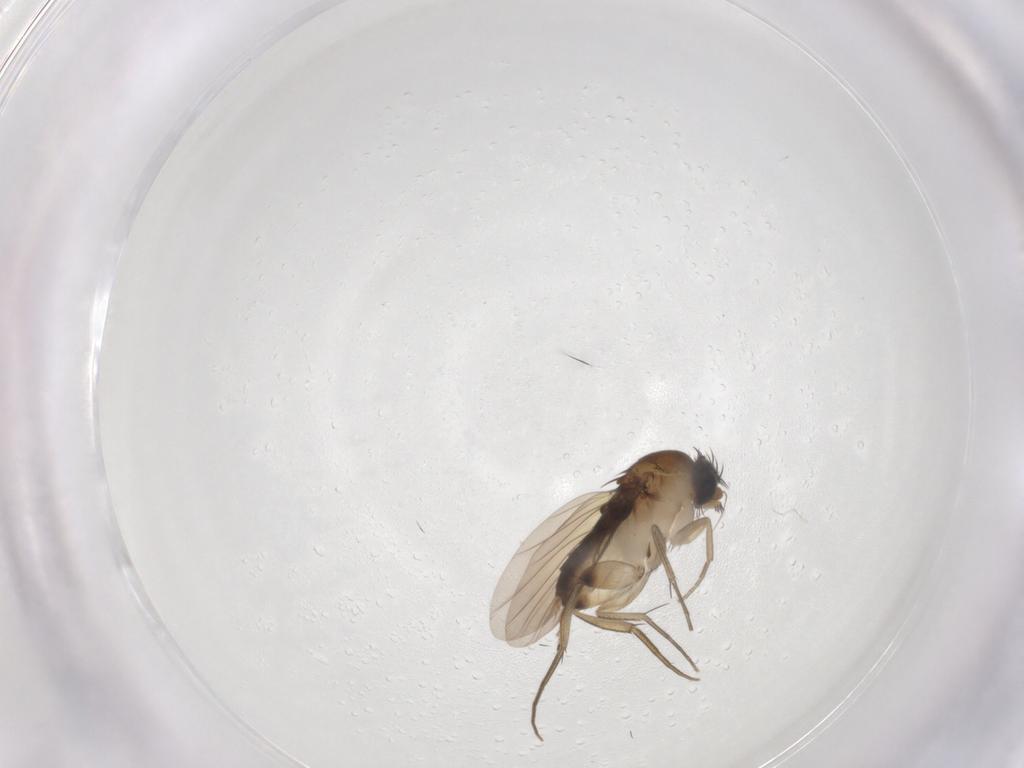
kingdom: Animalia
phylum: Arthropoda
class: Insecta
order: Diptera
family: Phoridae
